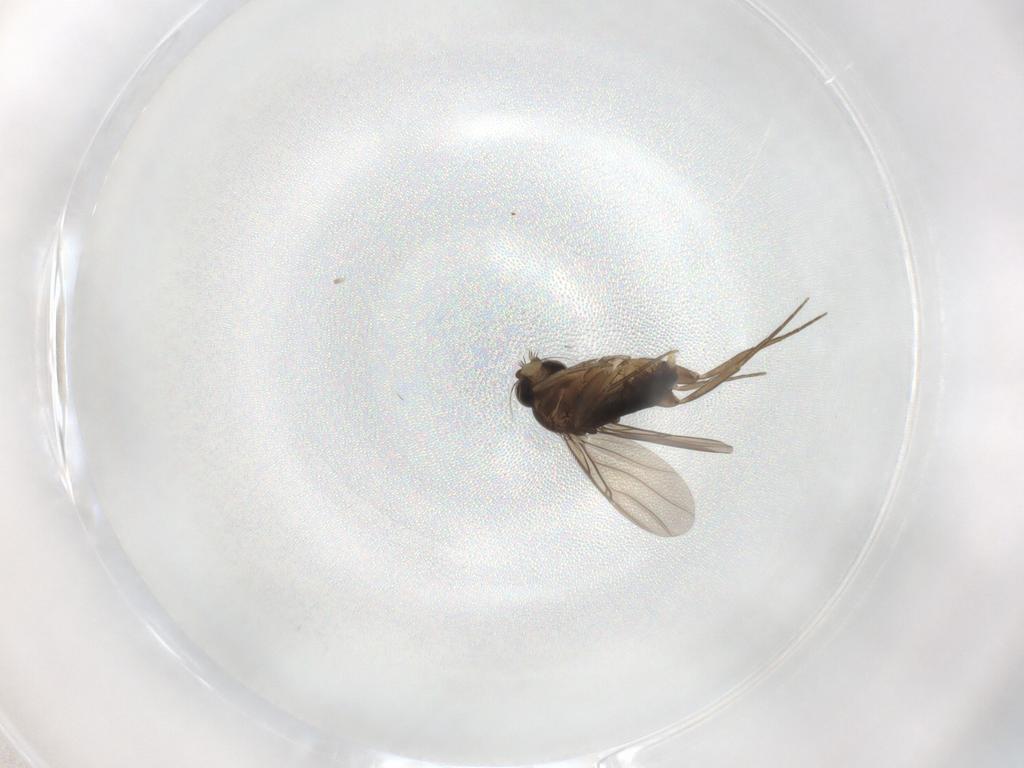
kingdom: Animalia
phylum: Arthropoda
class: Insecta
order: Diptera
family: Phoridae
